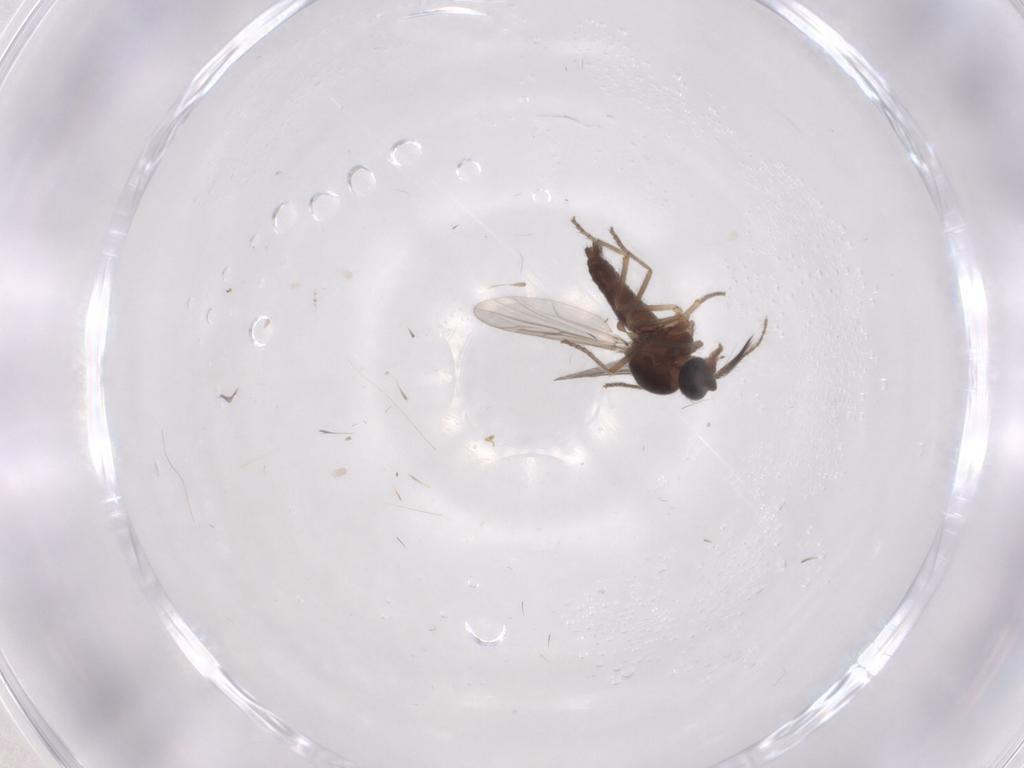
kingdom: Animalia
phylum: Arthropoda
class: Insecta
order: Diptera
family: Ceratopogonidae
